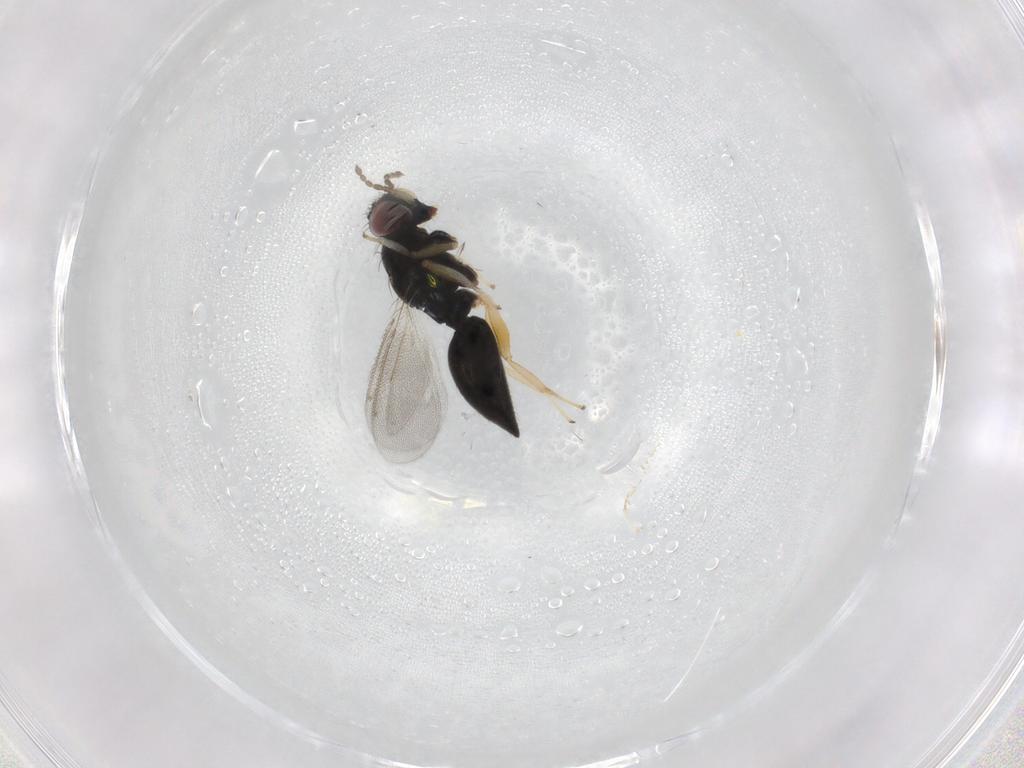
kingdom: Animalia
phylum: Arthropoda
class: Insecta
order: Hymenoptera
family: Eulophidae
